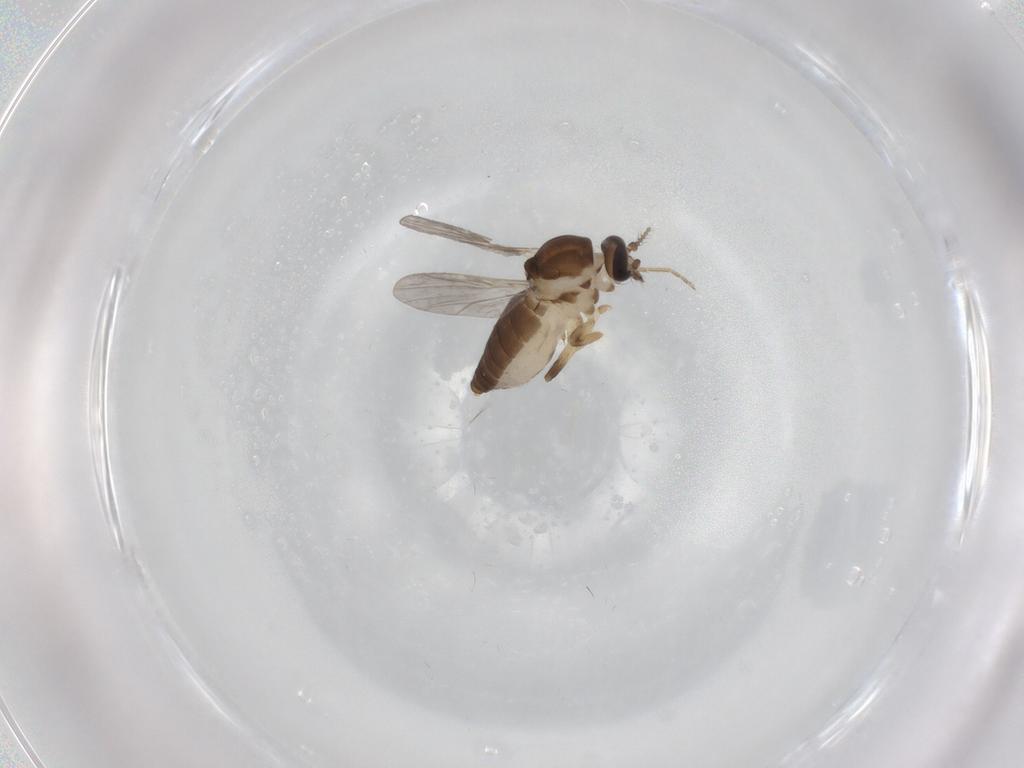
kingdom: Animalia
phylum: Arthropoda
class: Insecta
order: Diptera
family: Ceratopogonidae
